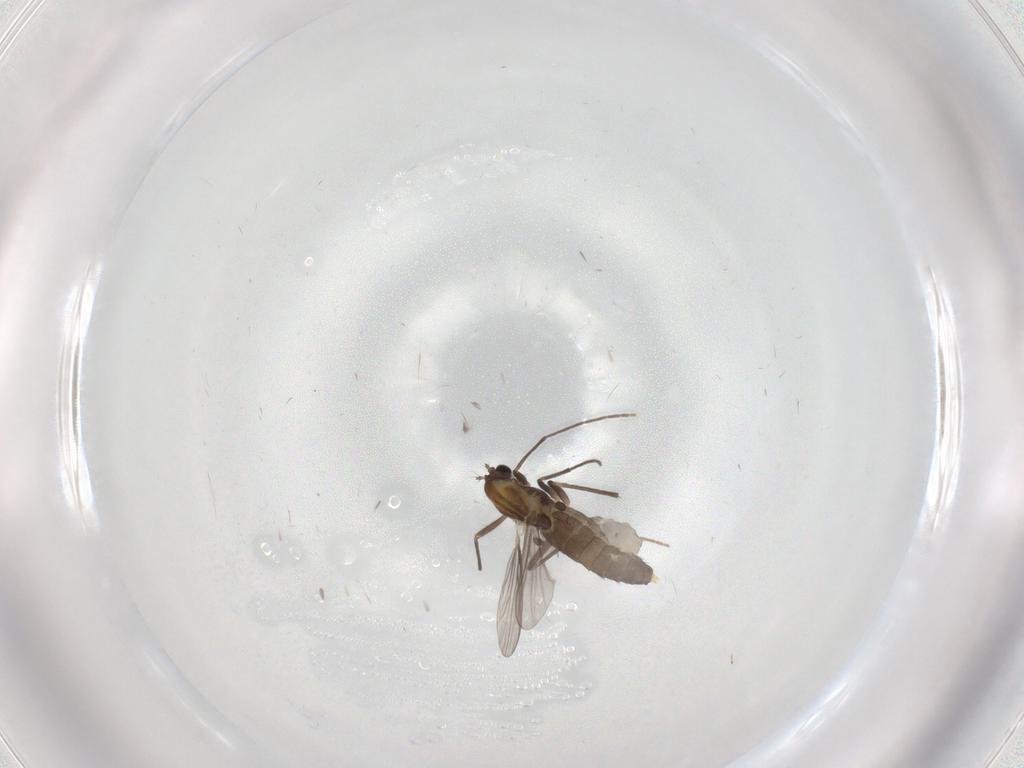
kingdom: Animalia
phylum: Arthropoda
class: Insecta
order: Diptera
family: Chironomidae
